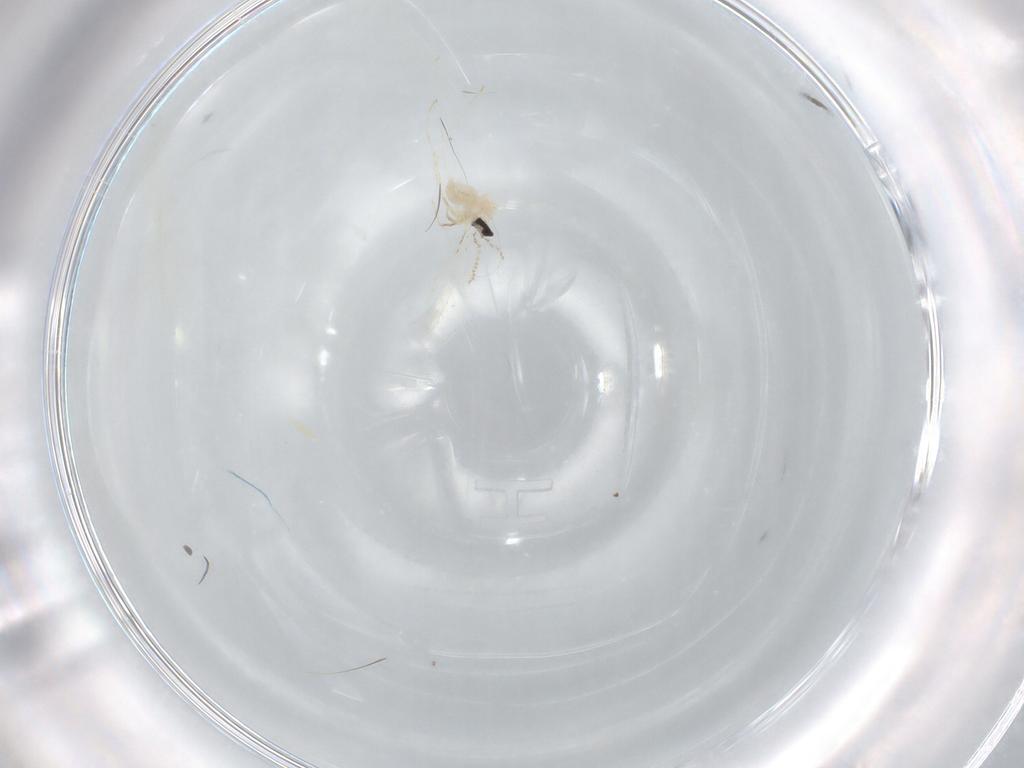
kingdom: Animalia
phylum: Arthropoda
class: Insecta
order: Diptera
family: Cecidomyiidae
